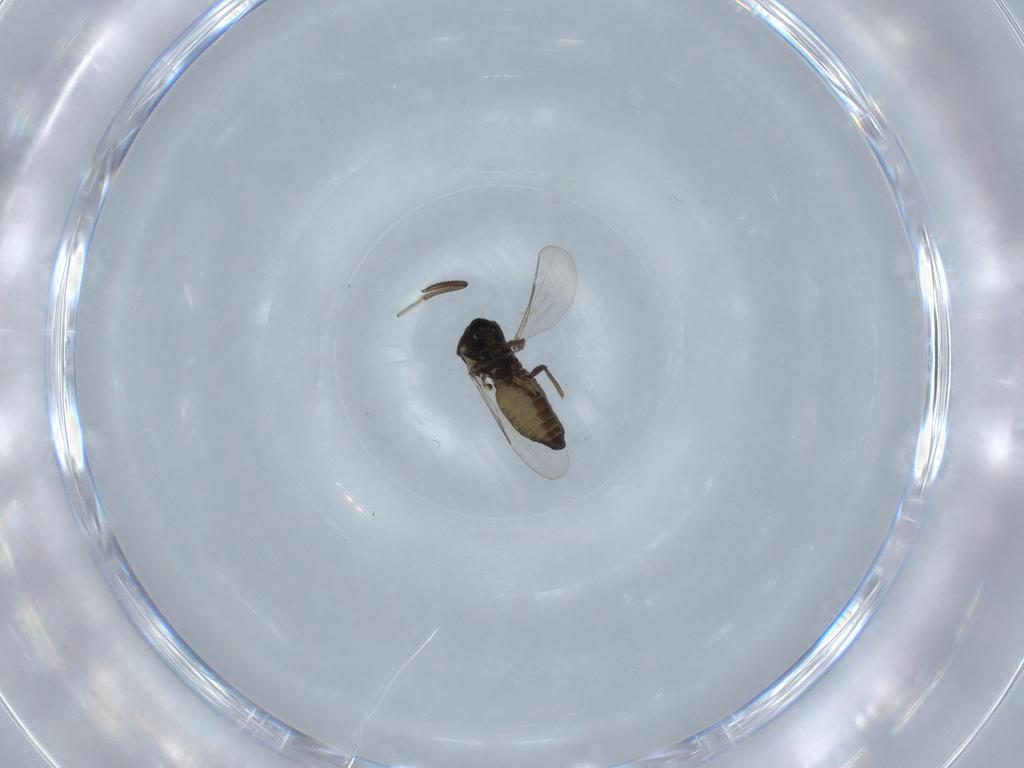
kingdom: Animalia
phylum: Arthropoda
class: Insecta
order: Diptera
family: Ceratopogonidae
